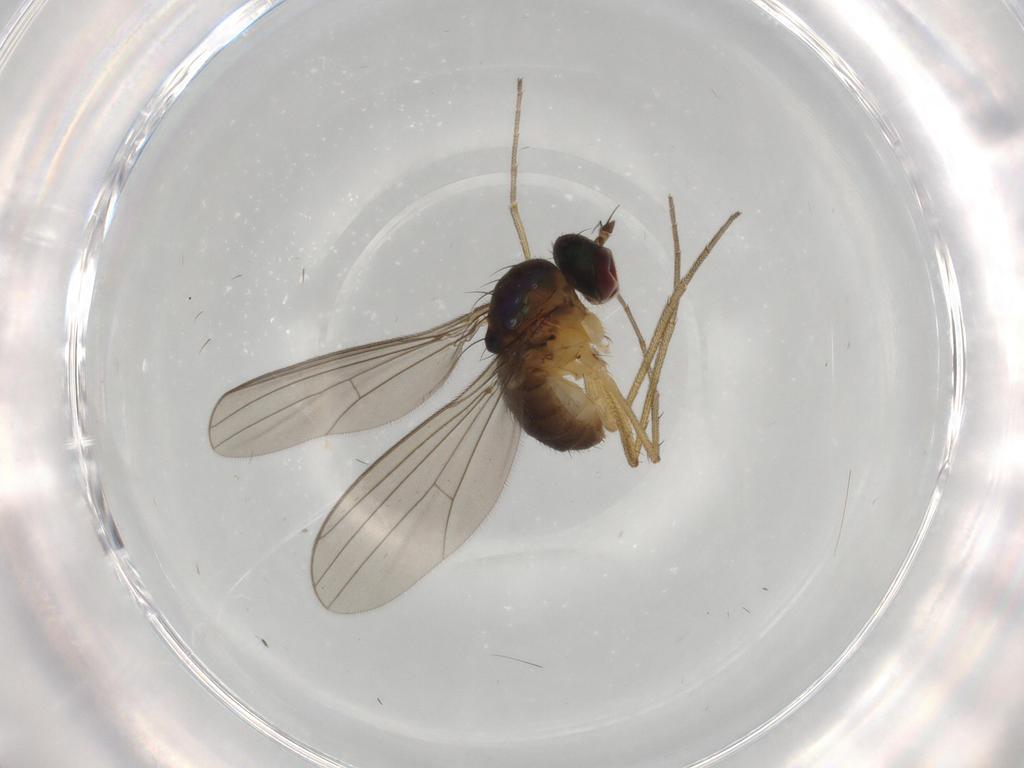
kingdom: Animalia
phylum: Arthropoda
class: Insecta
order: Diptera
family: Dolichopodidae
